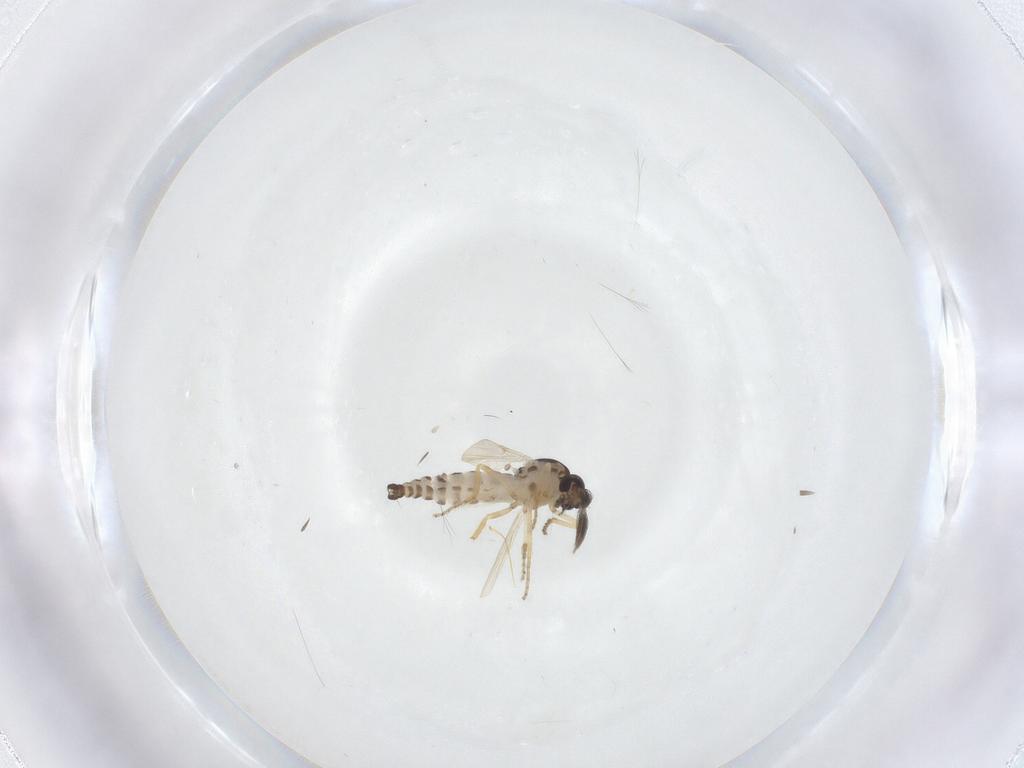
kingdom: Animalia
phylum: Arthropoda
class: Insecta
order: Diptera
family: Ceratopogonidae
